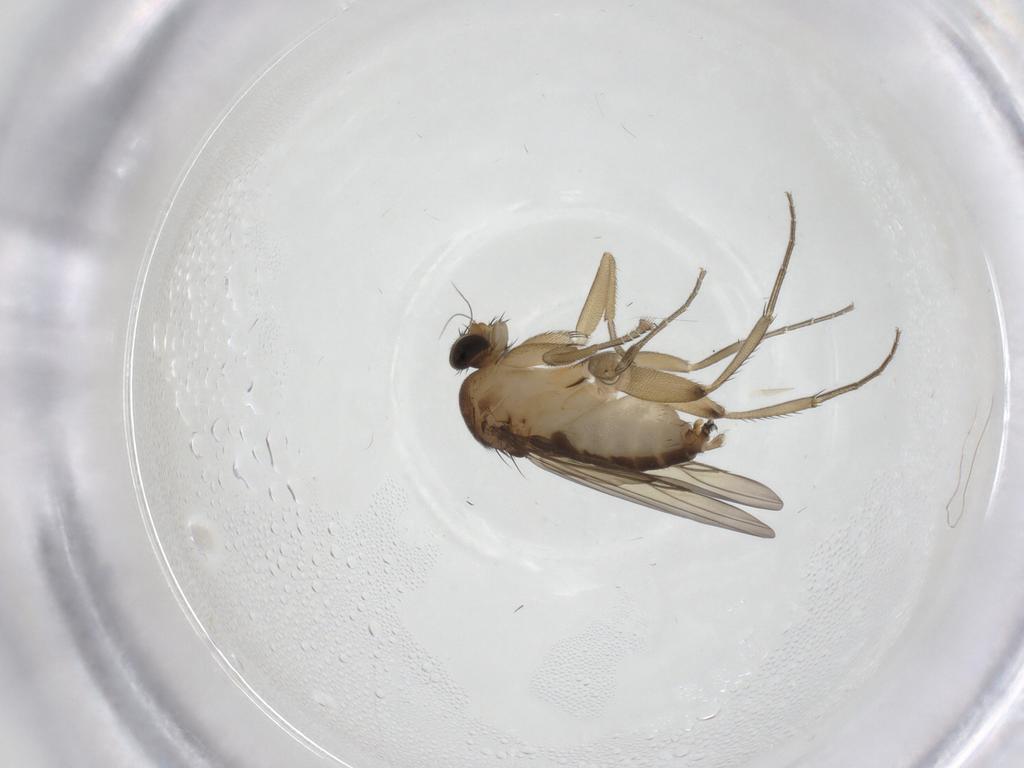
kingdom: Animalia
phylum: Arthropoda
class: Insecta
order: Diptera
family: Phoridae
